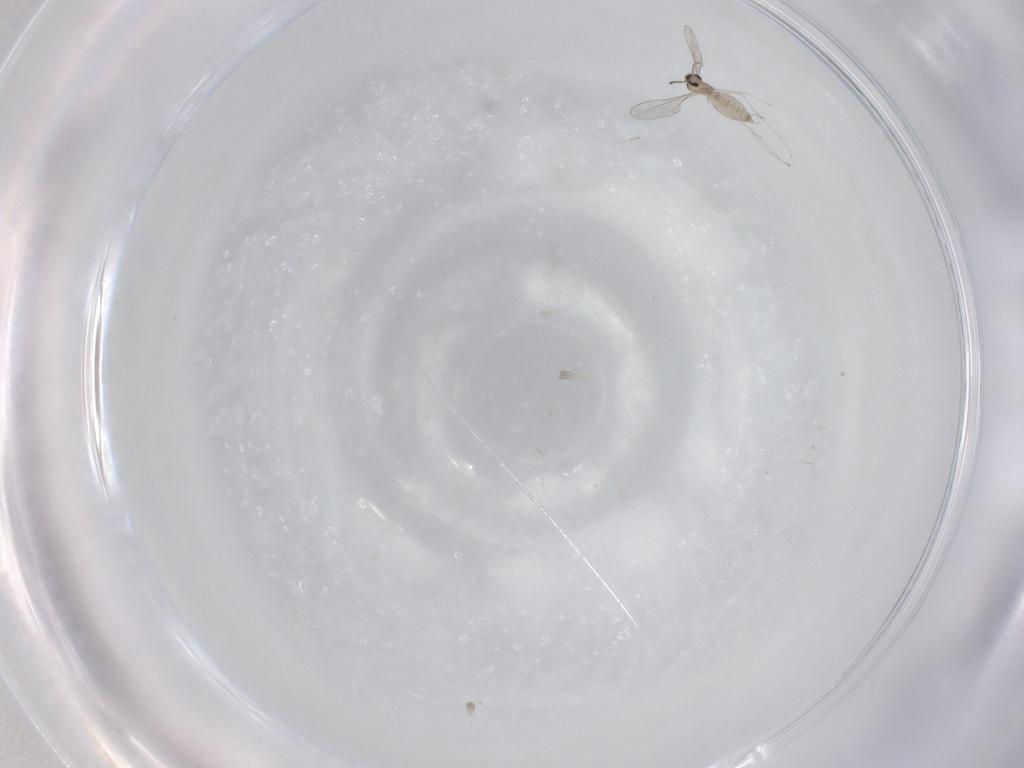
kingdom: Animalia
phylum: Arthropoda
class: Insecta
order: Diptera
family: Cecidomyiidae
